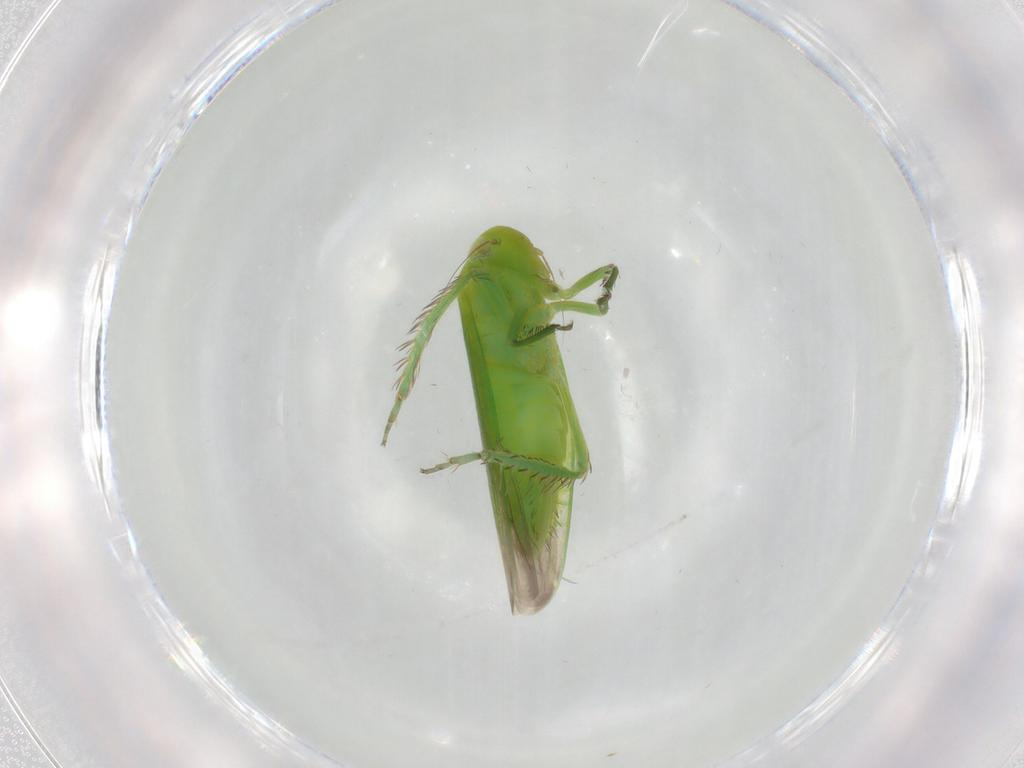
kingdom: Animalia
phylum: Arthropoda
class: Insecta
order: Hemiptera
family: Cicadellidae
